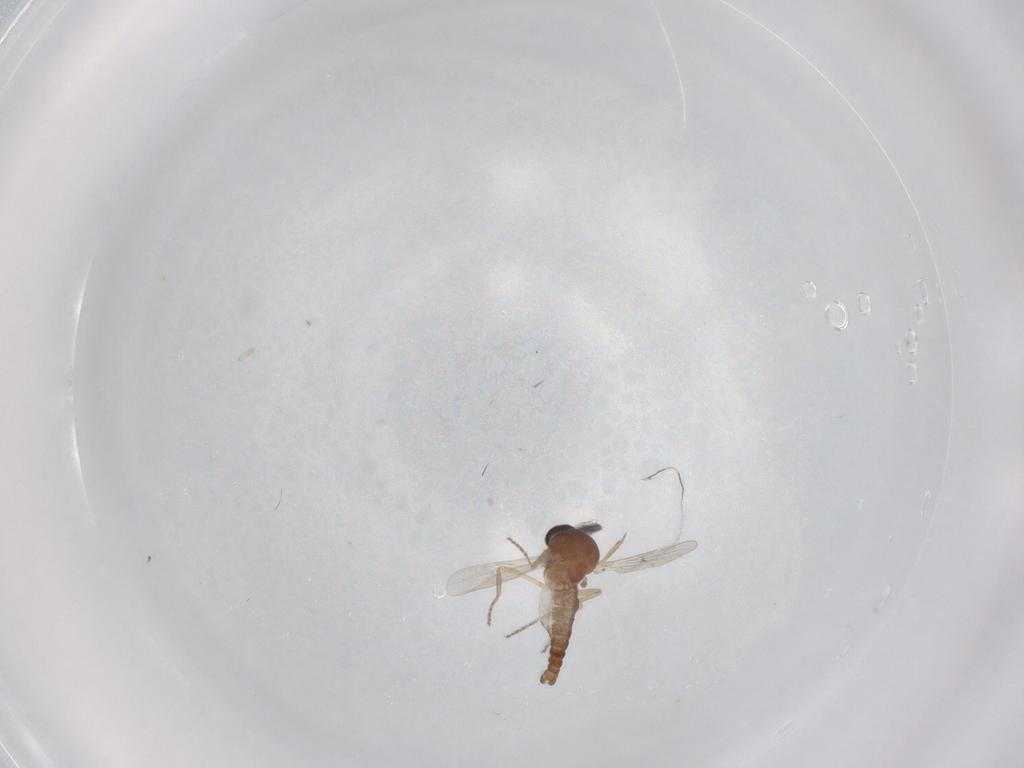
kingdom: Animalia
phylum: Arthropoda
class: Insecta
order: Diptera
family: Ceratopogonidae
